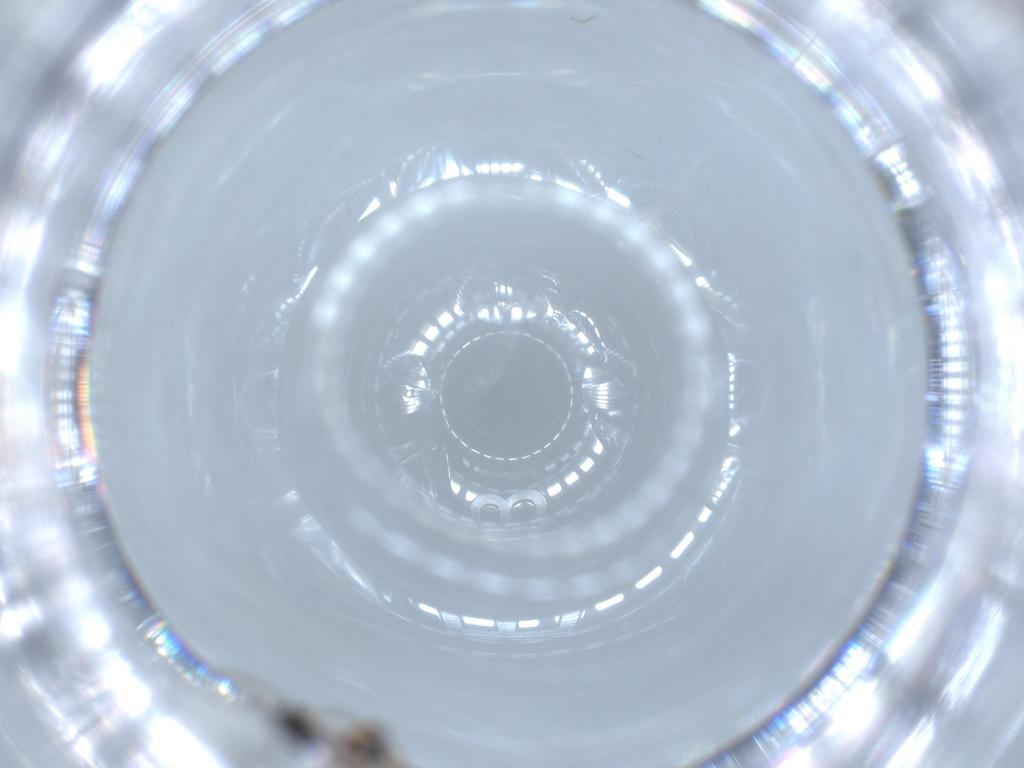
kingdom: Animalia
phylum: Arthropoda
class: Insecta
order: Hymenoptera
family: Diapriidae
